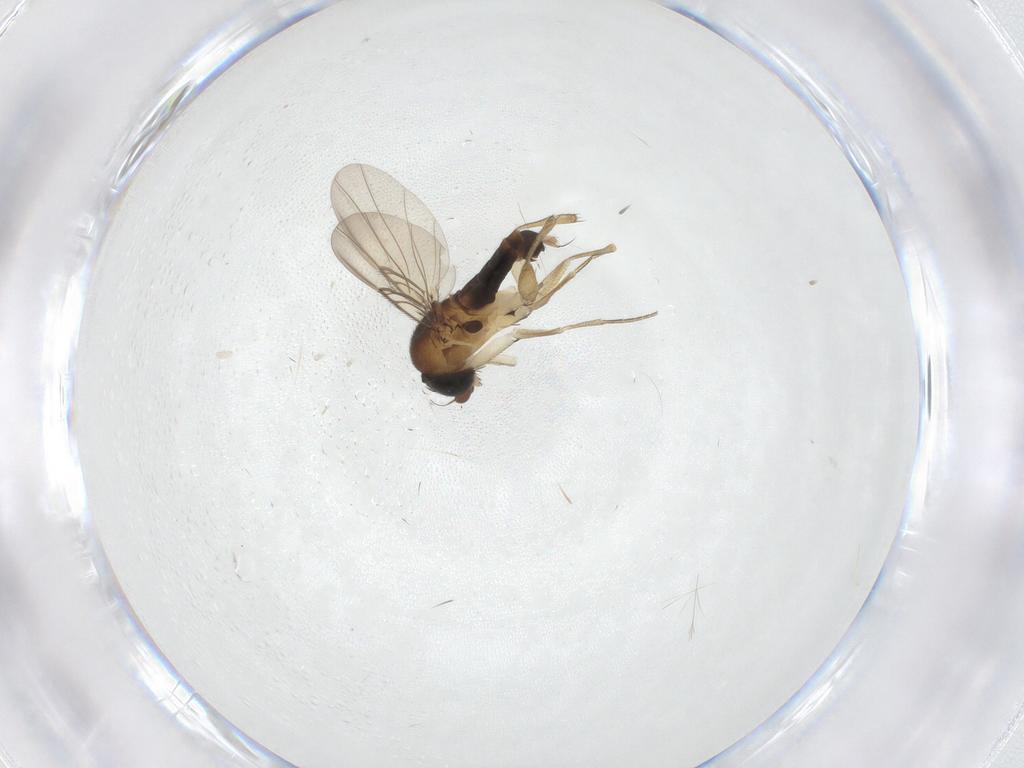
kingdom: Animalia
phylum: Arthropoda
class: Insecta
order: Diptera
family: Phoridae
